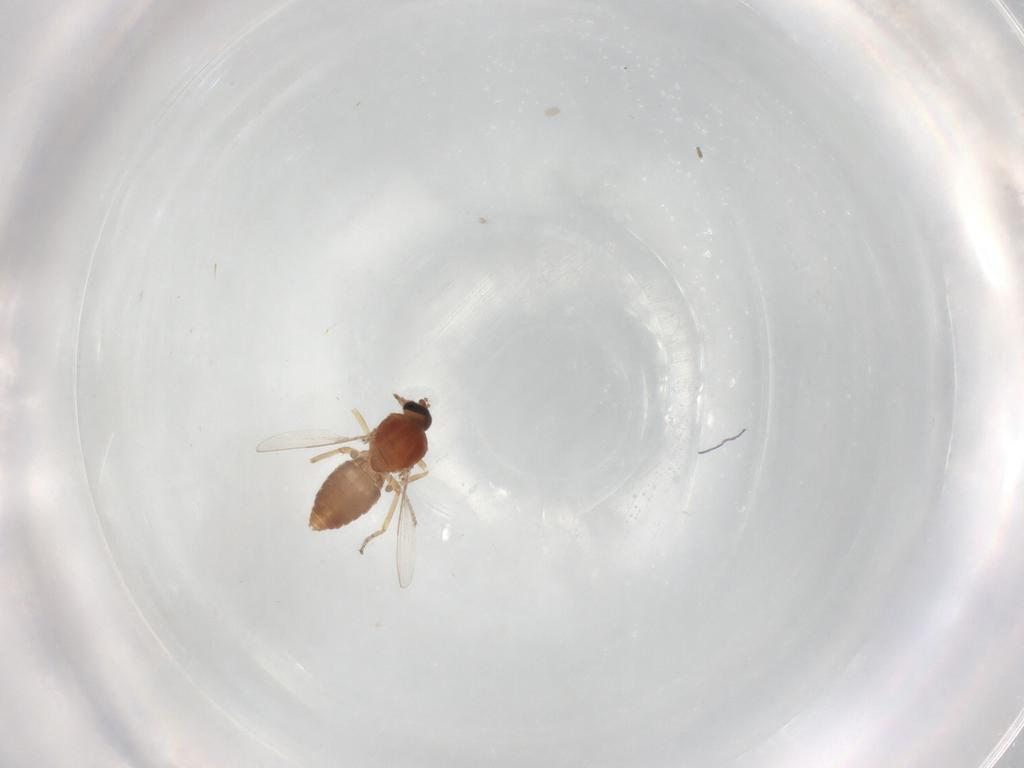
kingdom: Animalia
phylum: Arthropoda
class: Insecta
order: Diptera
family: Ceratopogonidae
